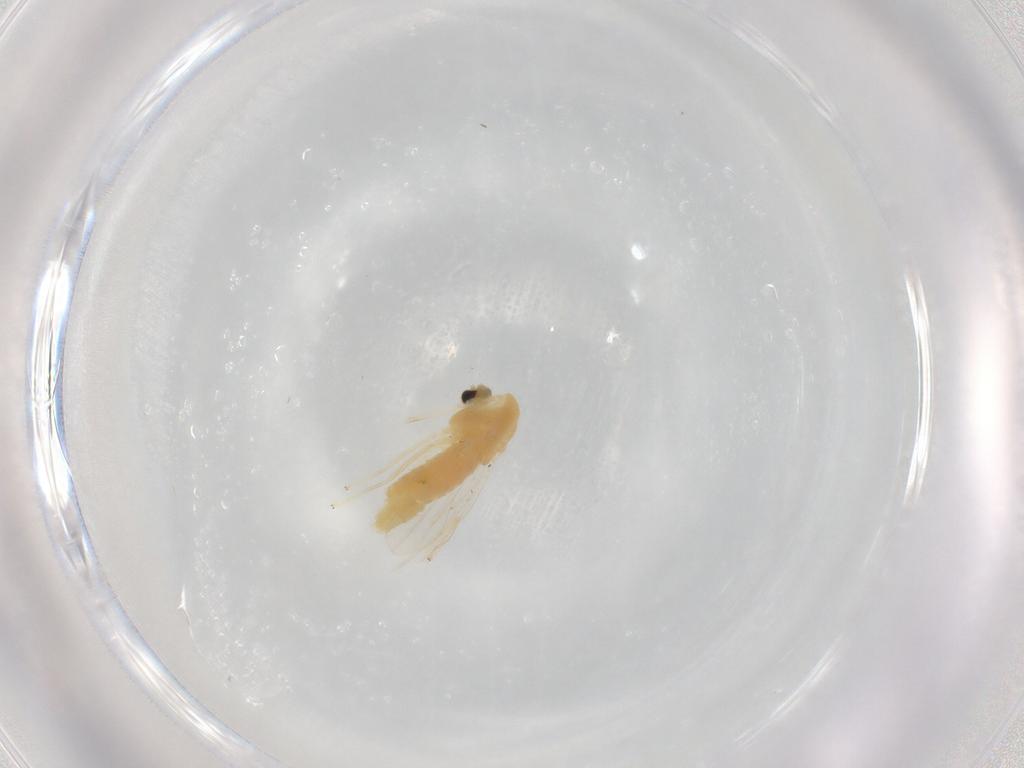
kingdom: Animalia
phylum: Arthropoda
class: Insecta
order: Diptera
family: Chironomidae
